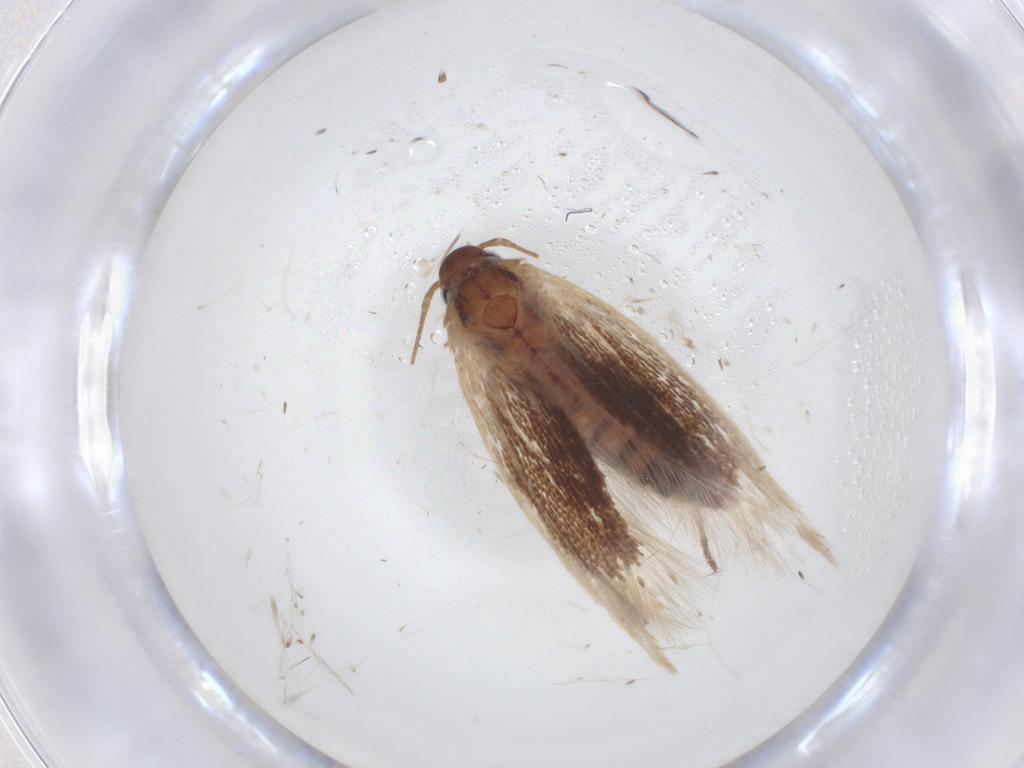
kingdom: Animalia
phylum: Arthropoda
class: Insecta
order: Lepidoptera
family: Scythrididae
